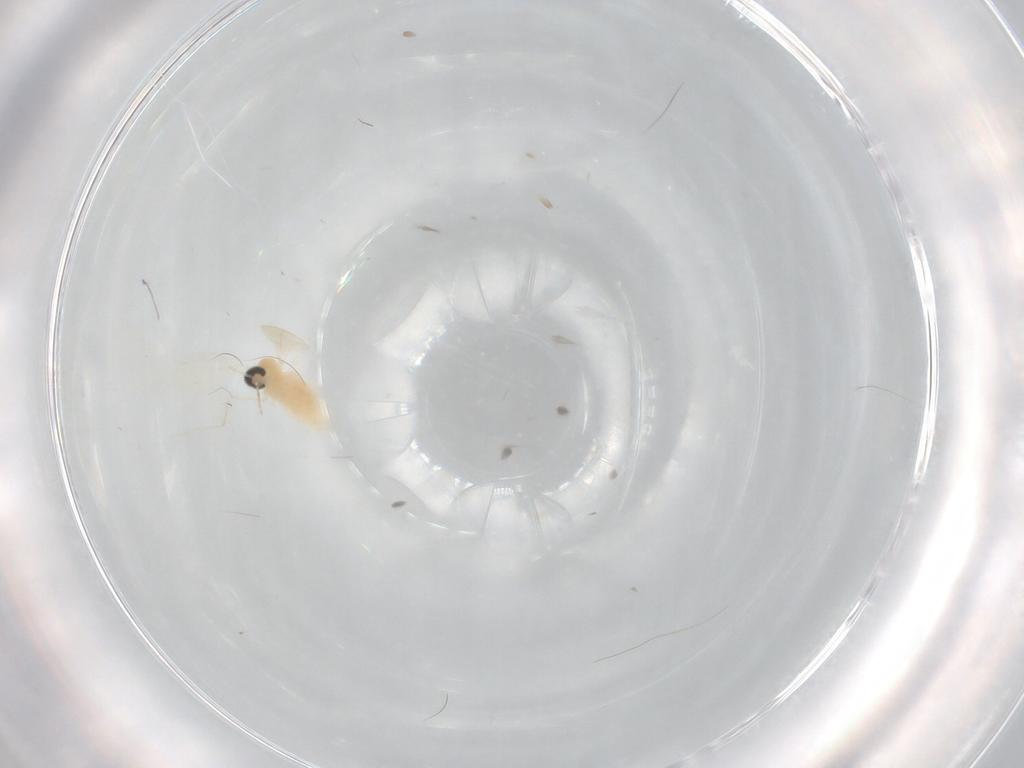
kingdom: Animalia
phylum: Arthropoda
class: Insecta
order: Diptera
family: Cecidomyiidae
